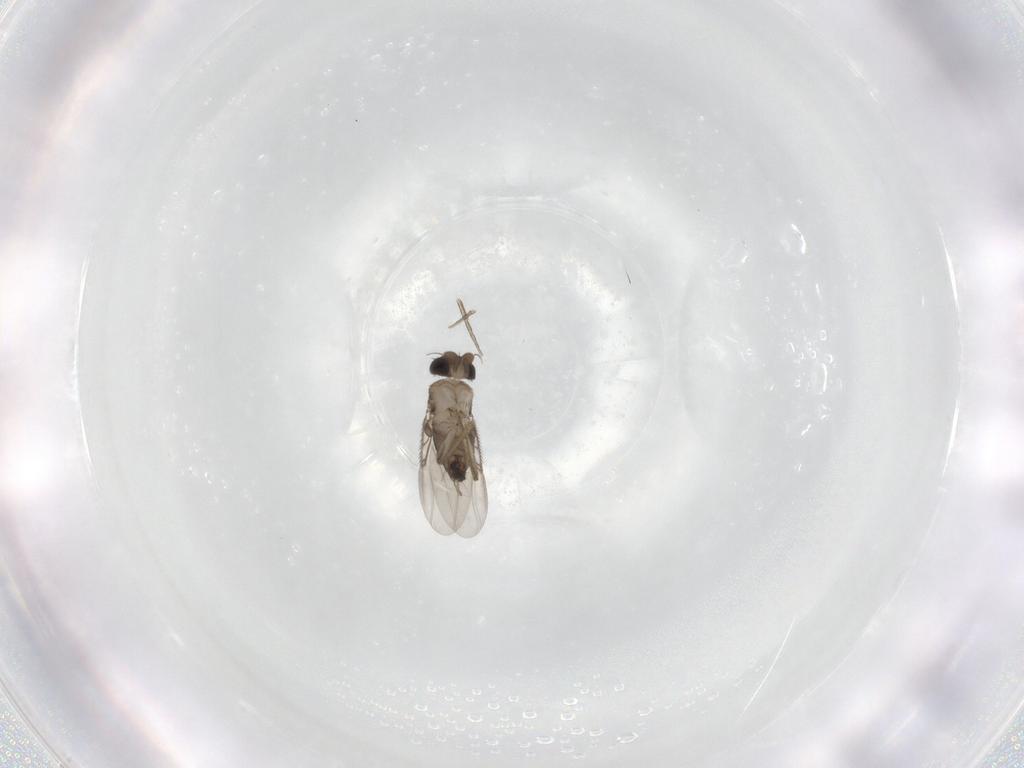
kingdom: Animalia
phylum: Arthropoda
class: Insecta
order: Diptera
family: Phoridae
